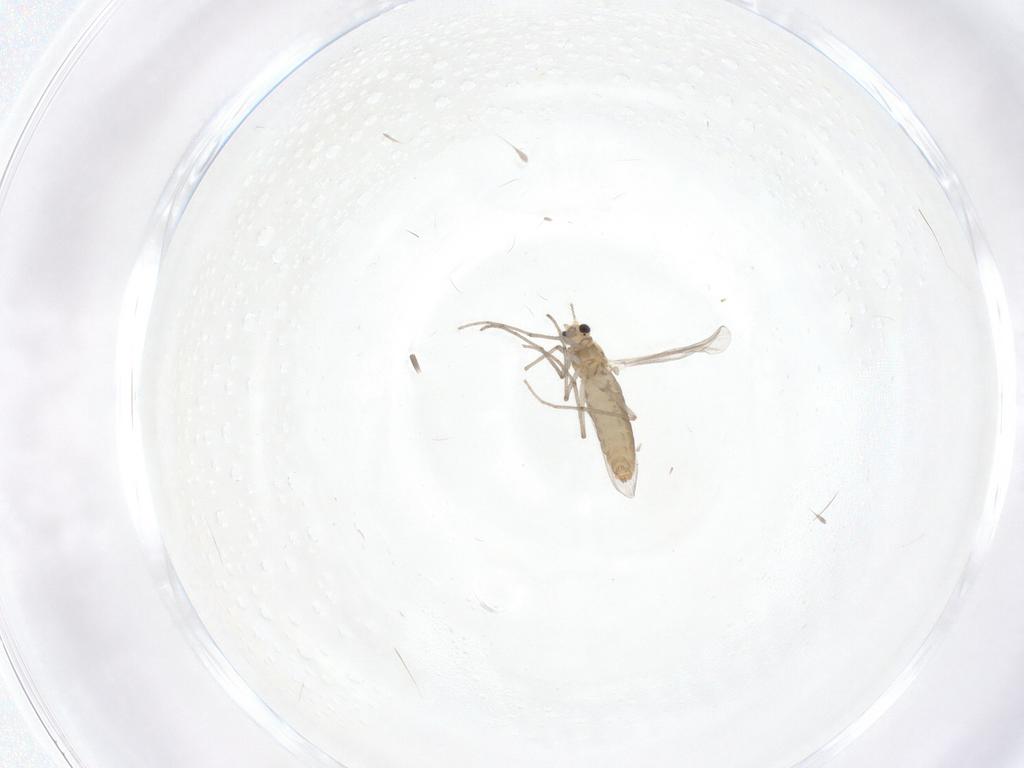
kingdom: Animalia
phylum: Arthropoda
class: Insecta
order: Diptera
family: Chironomidae
